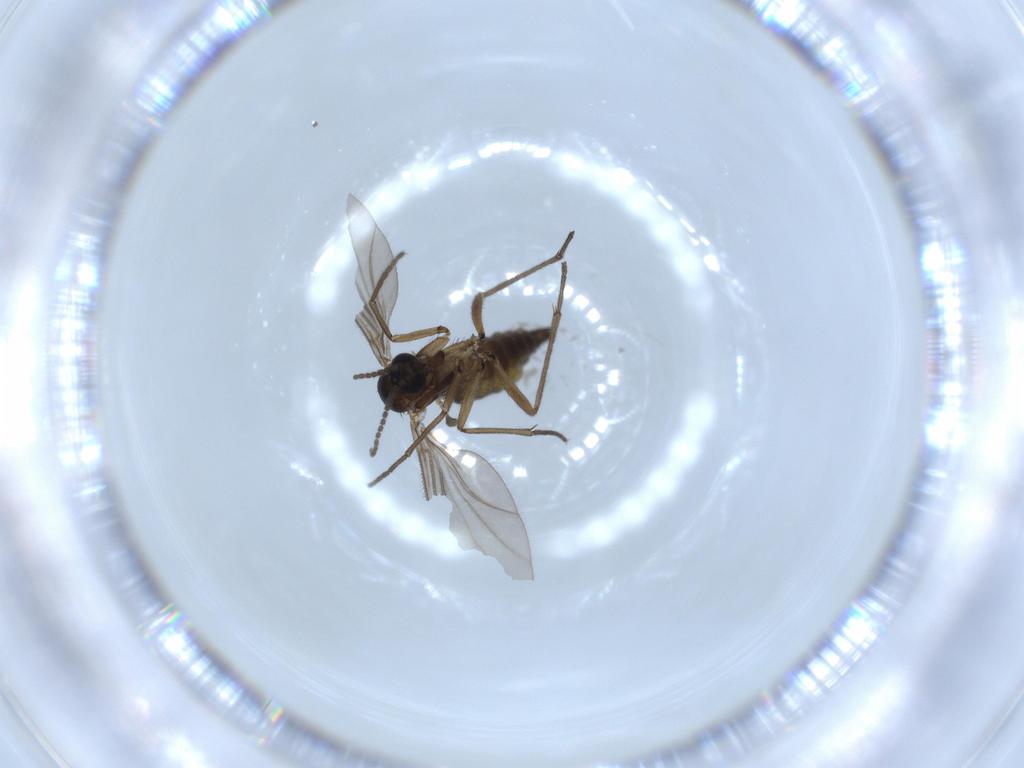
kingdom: Animalia
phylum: Arthropoda
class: Insecta
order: Diptera
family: Sciaridae
